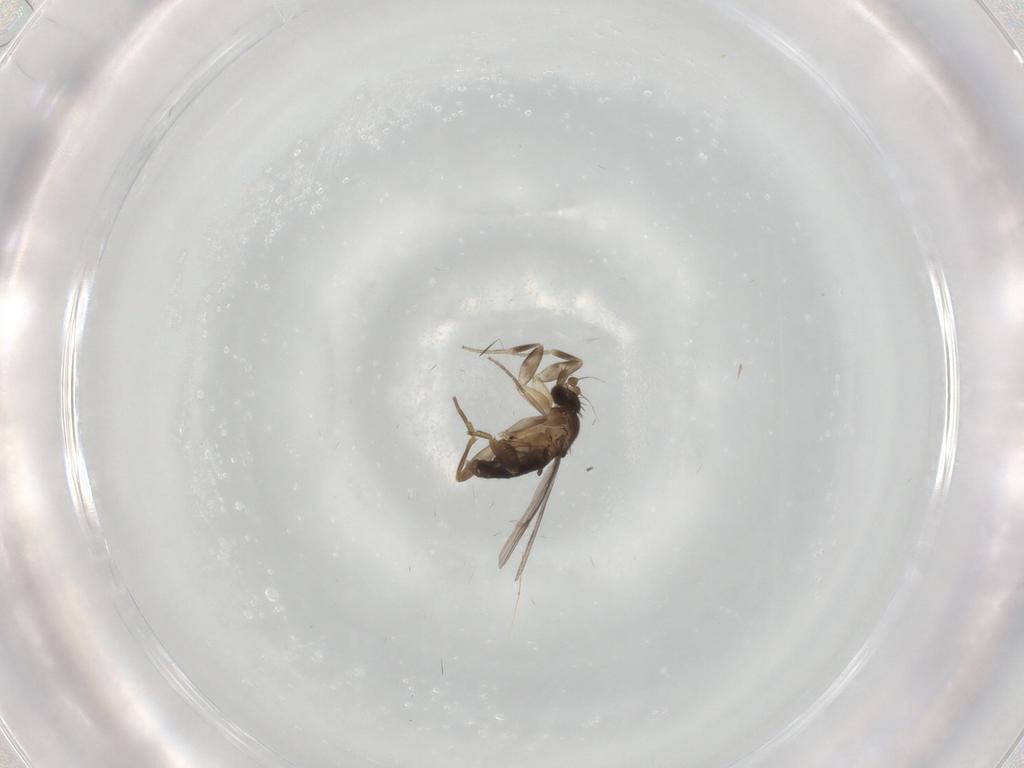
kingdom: Animalia
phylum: Arthropoda
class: Insecta
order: Diptera
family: Phoridae
